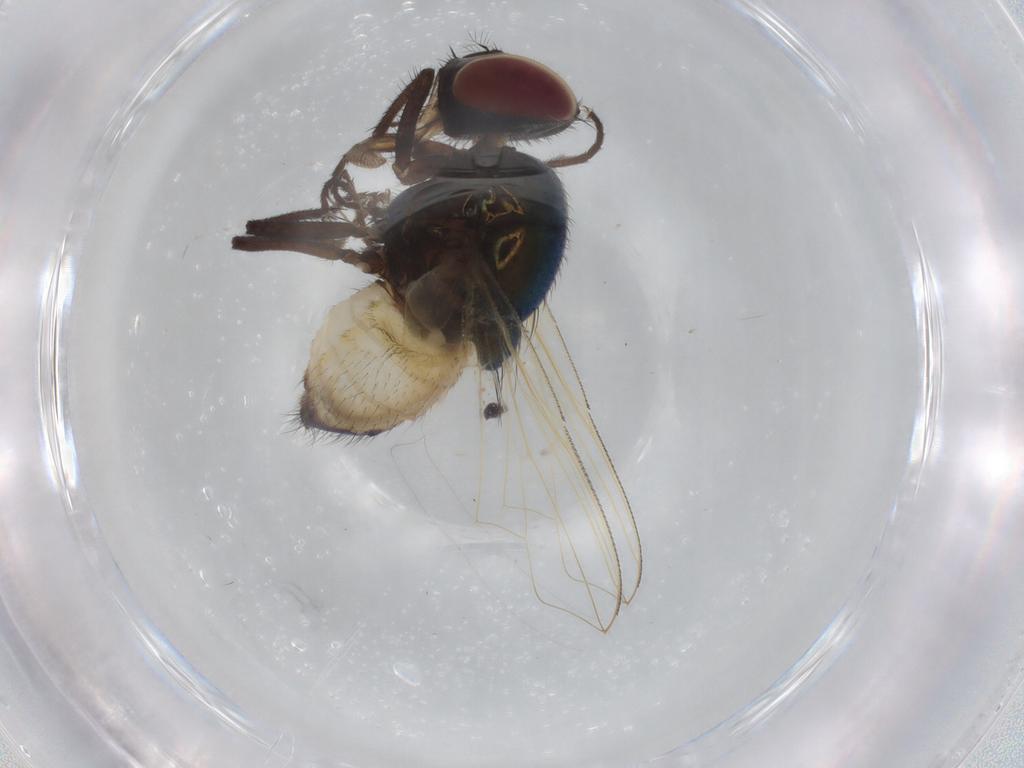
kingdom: Animalia
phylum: Arthropoda
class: Insecta
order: Diptera
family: Muscidae
